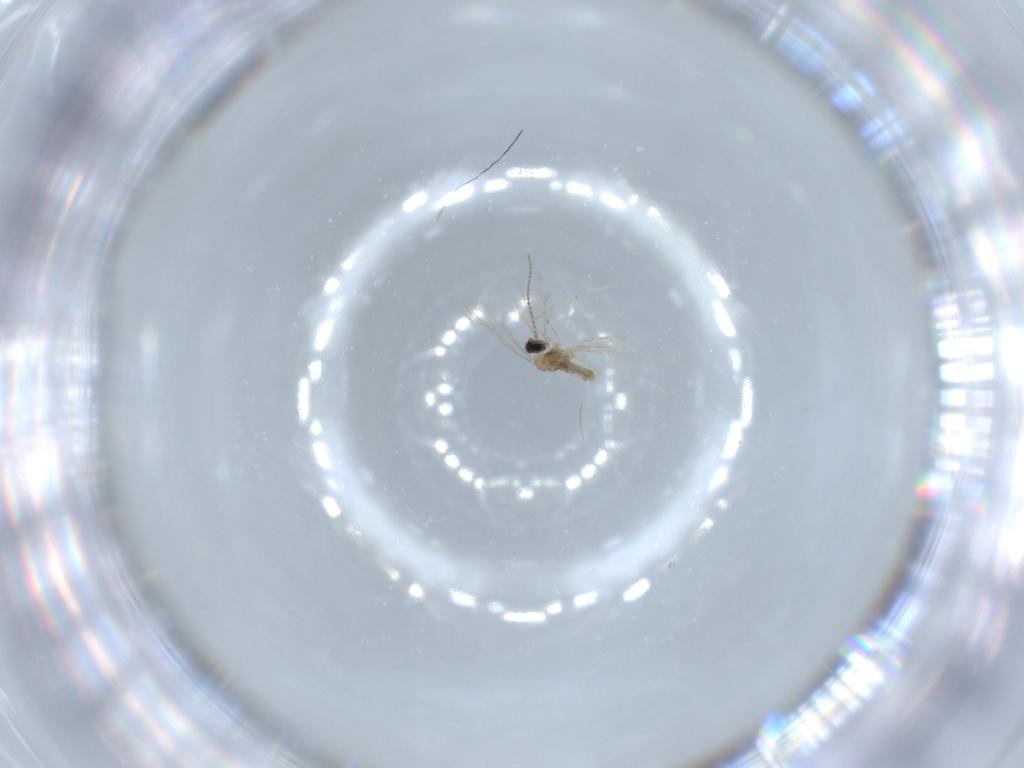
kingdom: Animalia
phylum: Arthropoda
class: Insecta
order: Diptera
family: Cecidomyiidae
